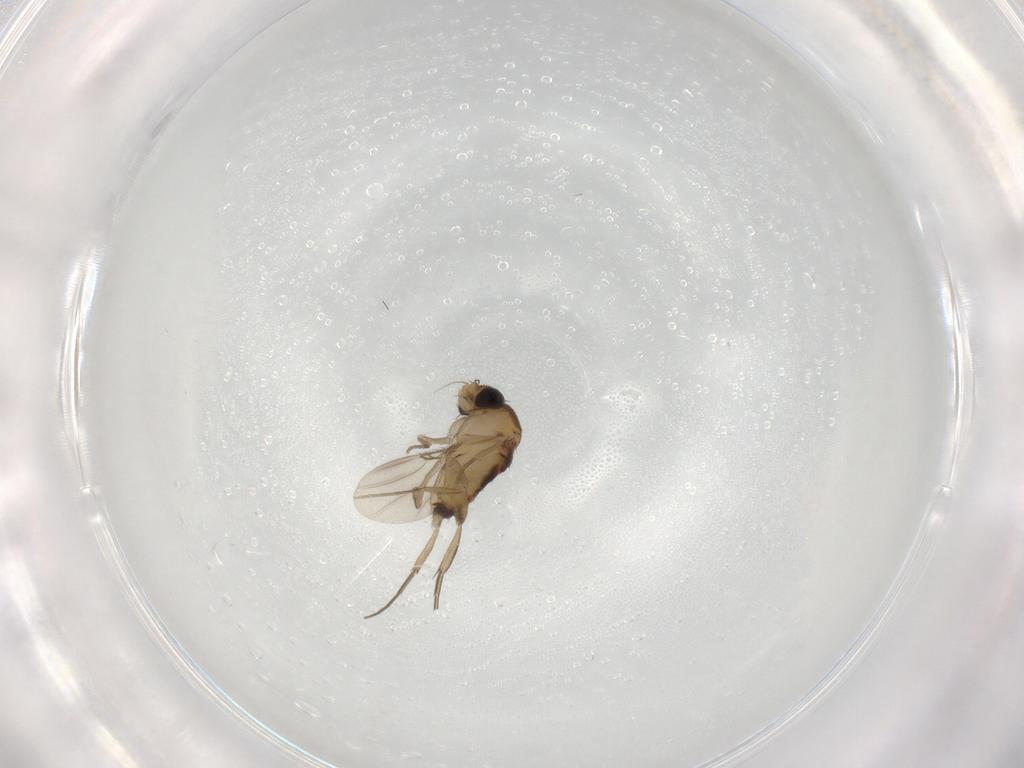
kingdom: Animalia
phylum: Arthropoda
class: Insecta
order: Diptera
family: Phoridae
